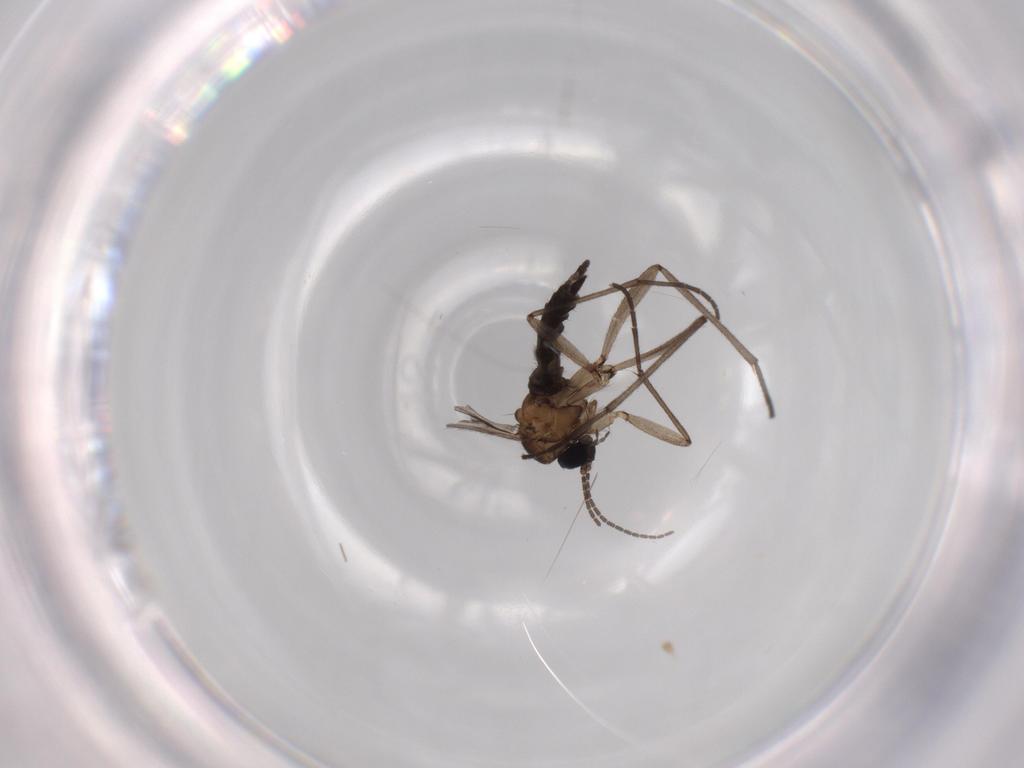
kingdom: Animalia
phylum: Arthropoda
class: Insecta
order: Diptera
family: Sciaridae
